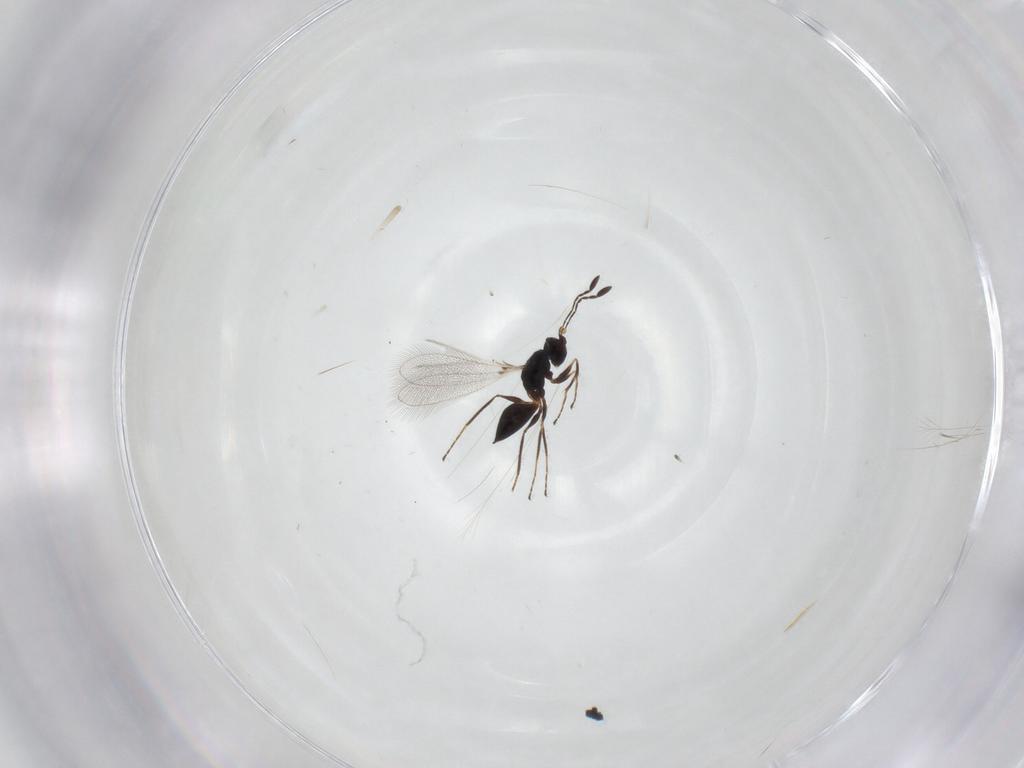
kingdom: Animalia
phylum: Arthropoda
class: Insecta
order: Hymenoptera
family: Mymaridae
